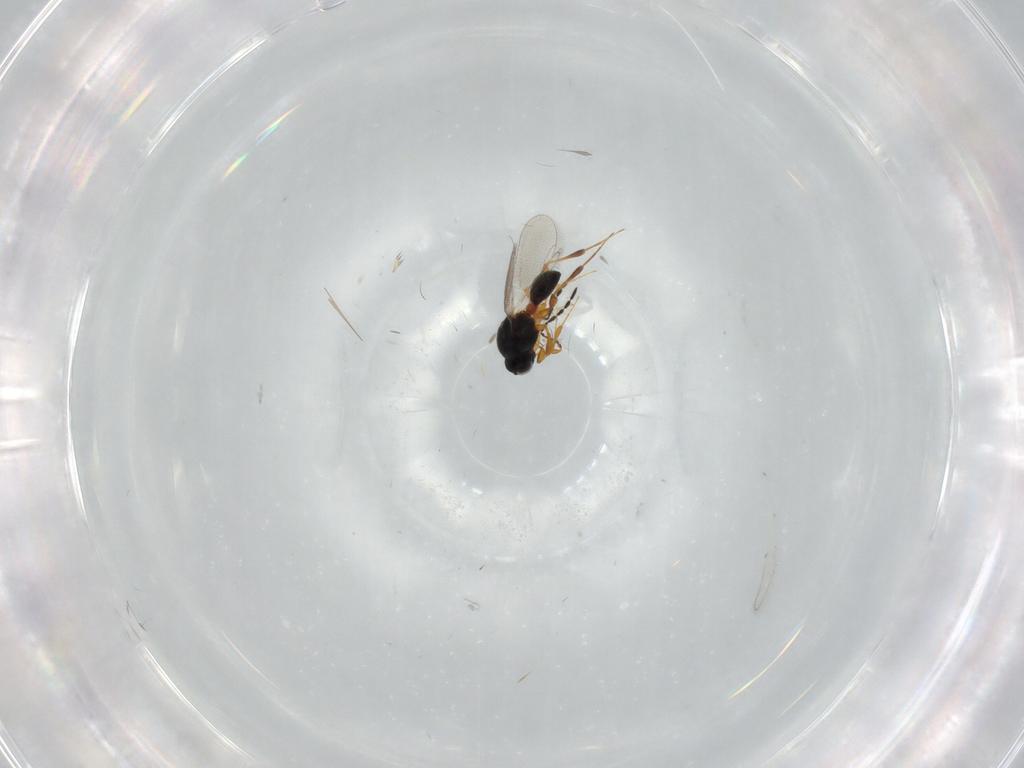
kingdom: Animalia
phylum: Arthropoda
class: Insecta
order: Hymenoptera
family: Platygastridae
